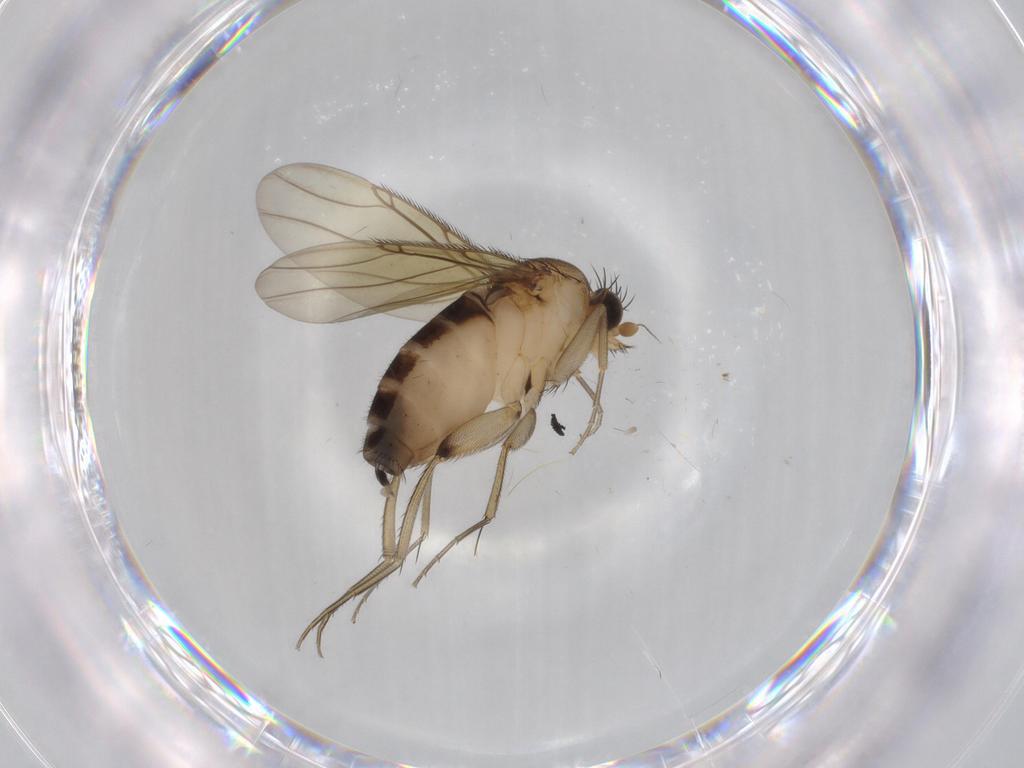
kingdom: Animalia
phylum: Arthropoda
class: Insecta
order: Diptera
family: Phoridae
